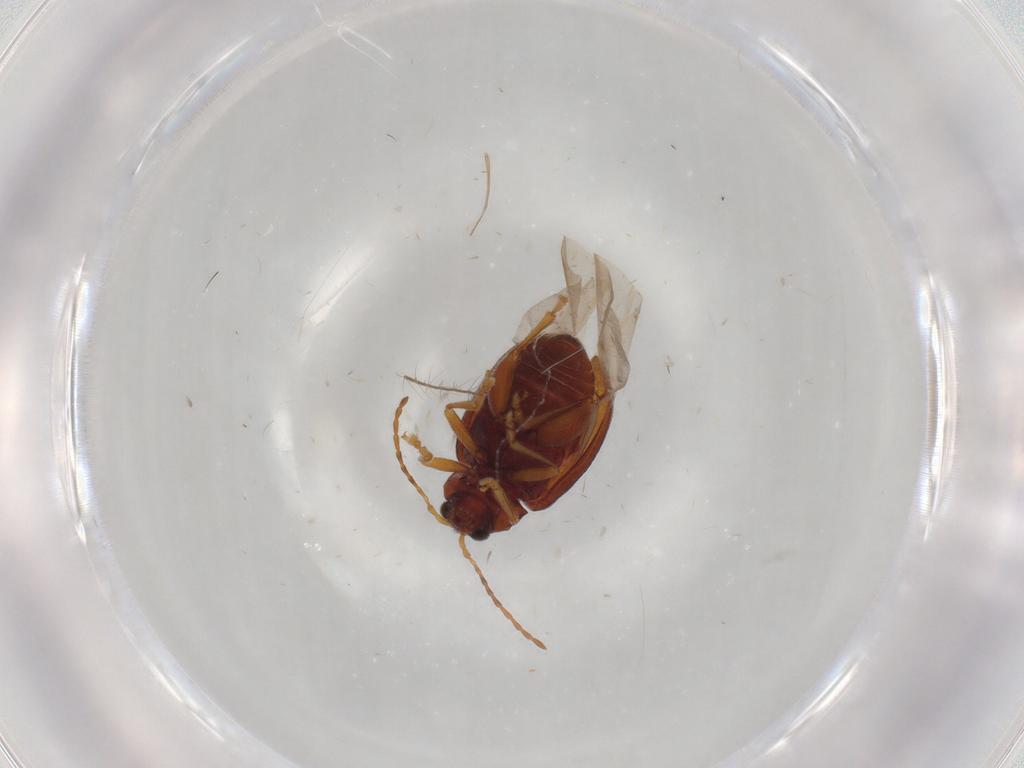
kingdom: Animalia
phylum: Arthropoda
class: Insecta
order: Coleoptera
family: Chrysomelidae
